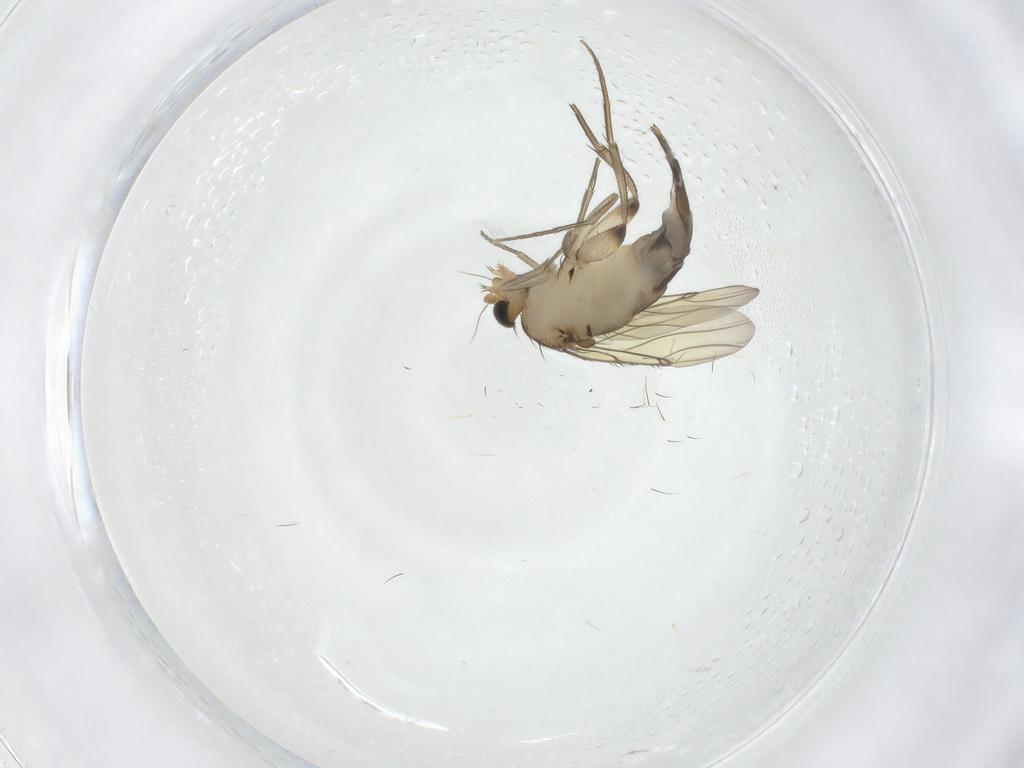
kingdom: Animalia
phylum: Arthropoda
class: Insecta
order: Diptera
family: Phoridae
